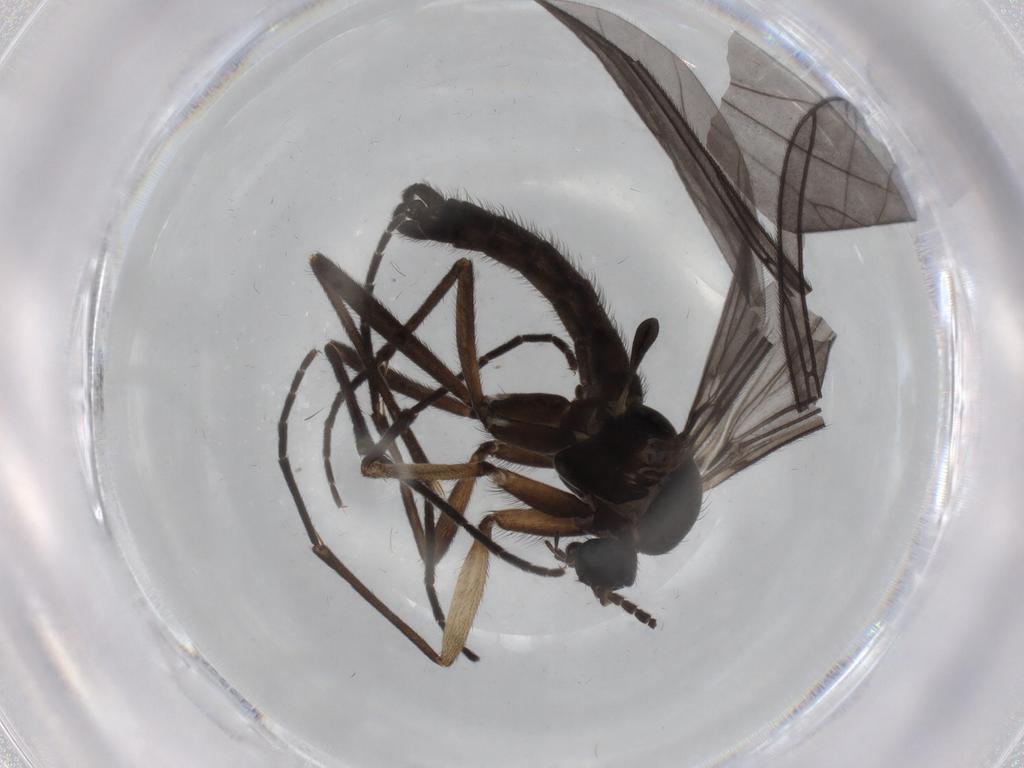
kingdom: Animalia
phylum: Arthropoda
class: Insecta
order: Diptera
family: Sciaridae
